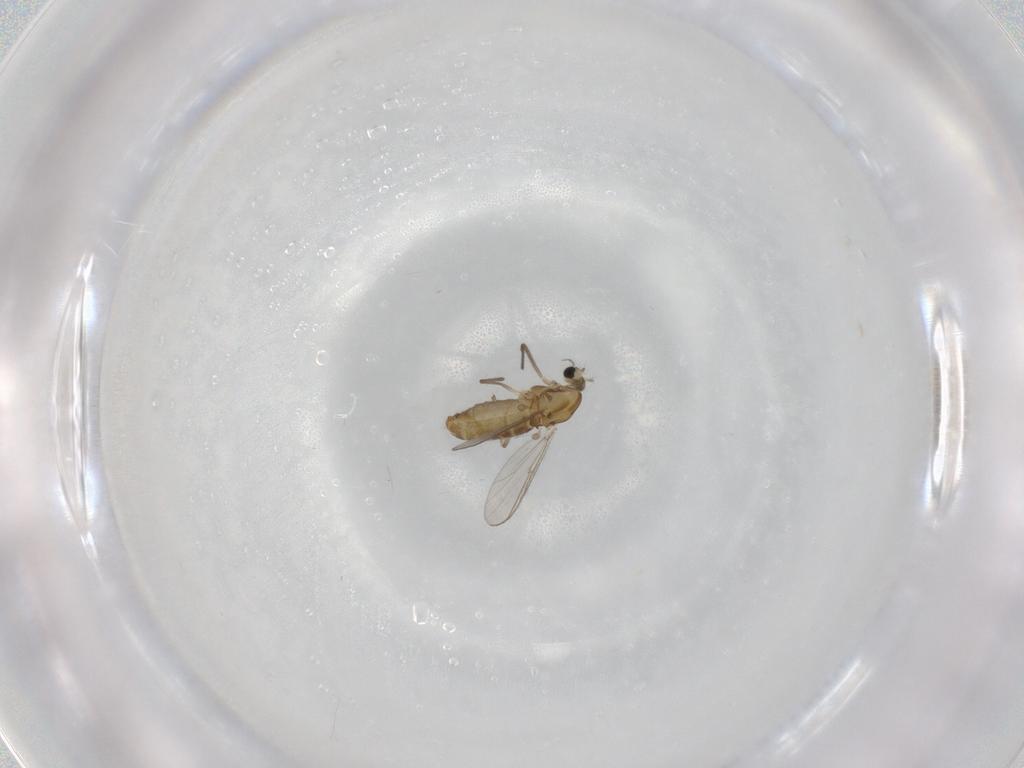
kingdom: Animalia
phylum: Arthropoda
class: Insecta
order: Diptera
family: Chironomidae
